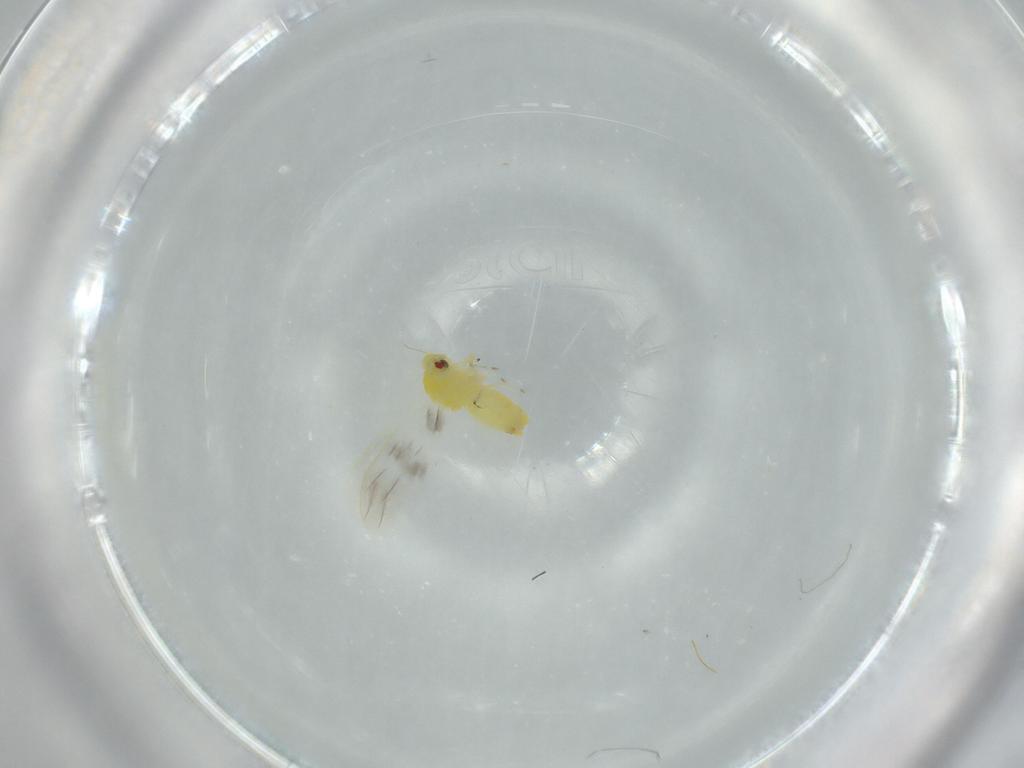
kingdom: Animalia
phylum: Arthropoda
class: Insecta
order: Hemiptera
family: Aleyrodidae
